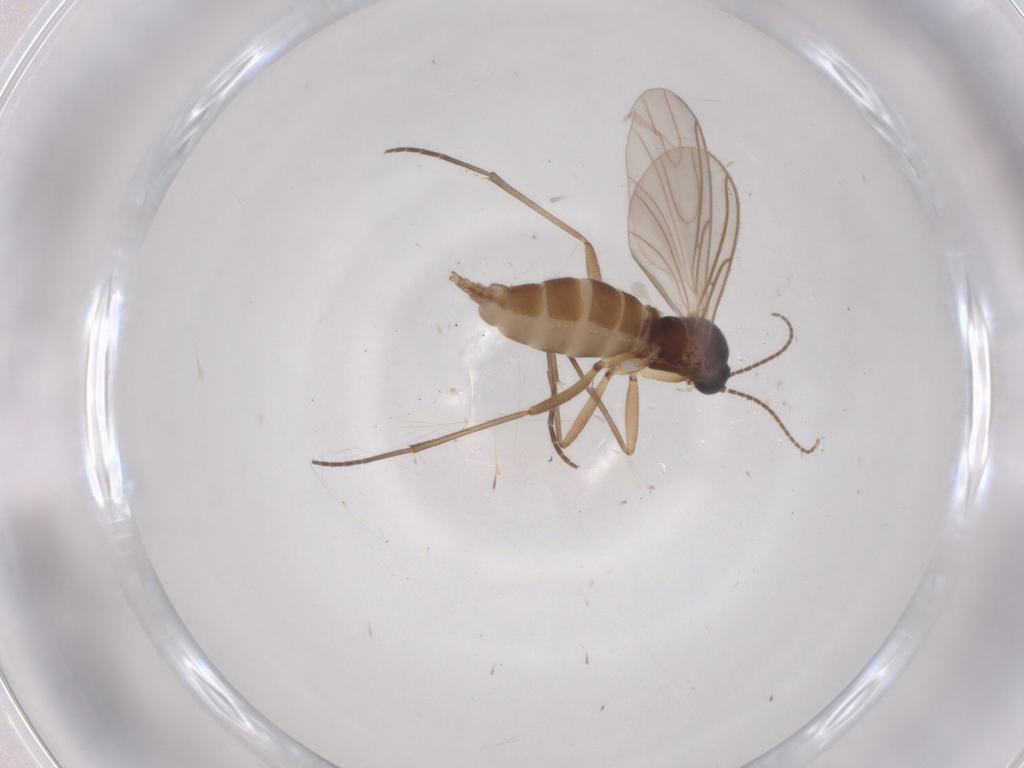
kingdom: Animalia
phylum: Arthropoda
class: Insecta
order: Diptera
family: Sciaridae
